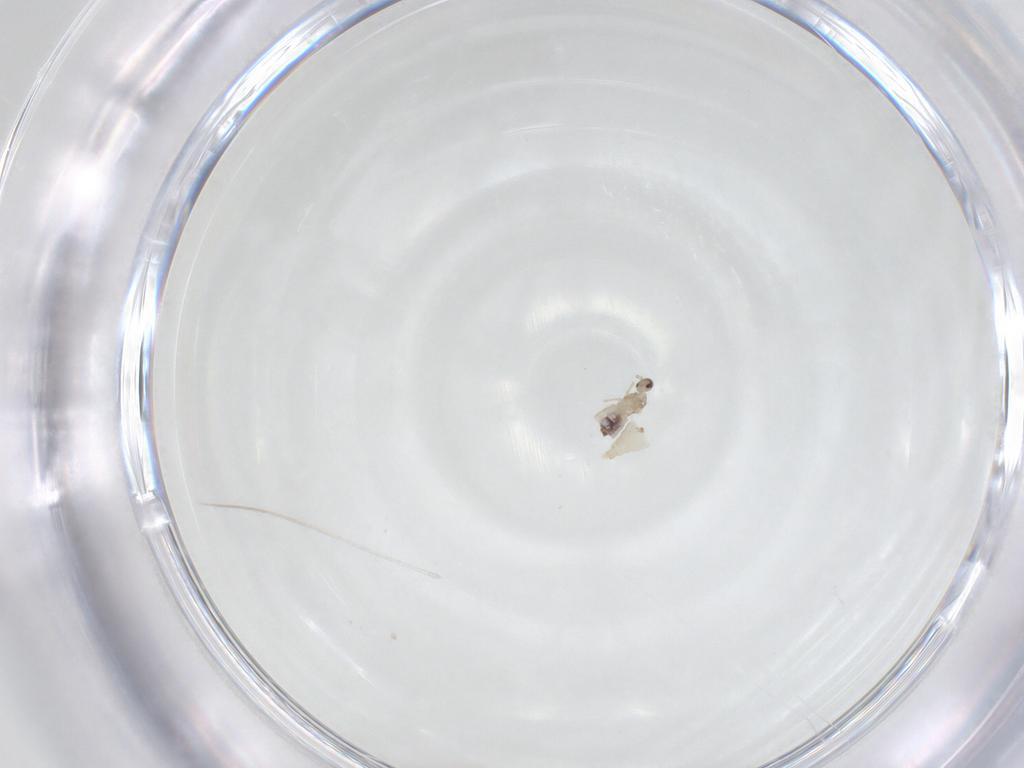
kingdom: Animalia
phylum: Arthropoda
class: Insecta
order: Diptera
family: Cecidomyiidae
